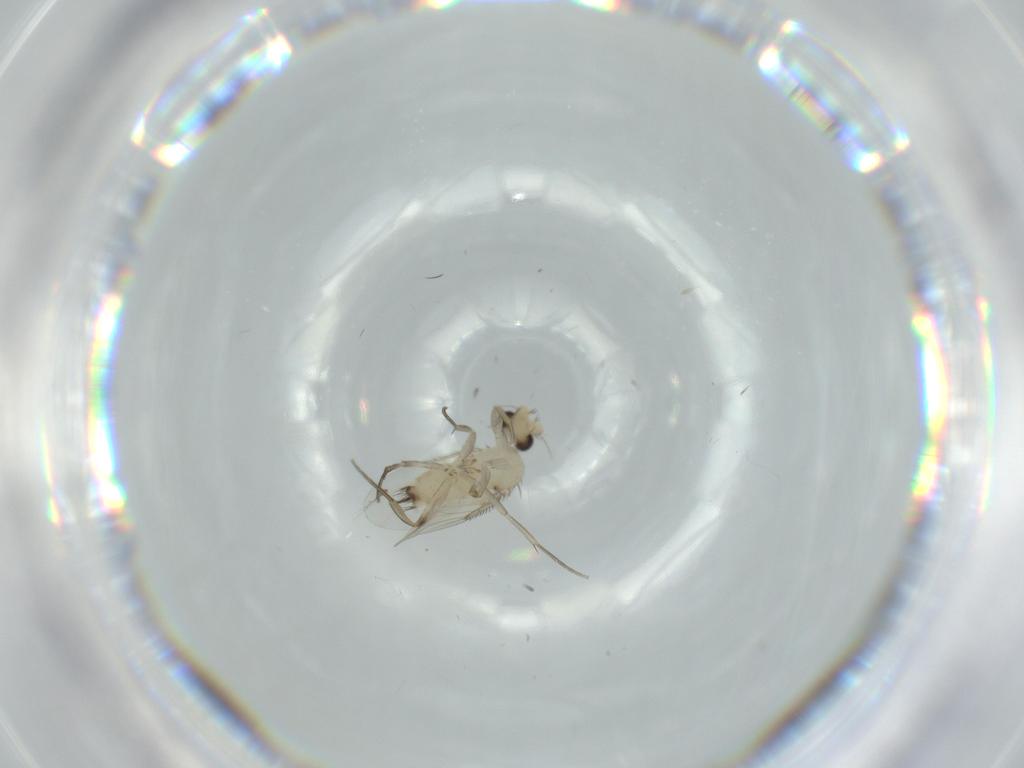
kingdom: Animalia
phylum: Arthropoda
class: Insecta
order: Diptera
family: Phoridae
